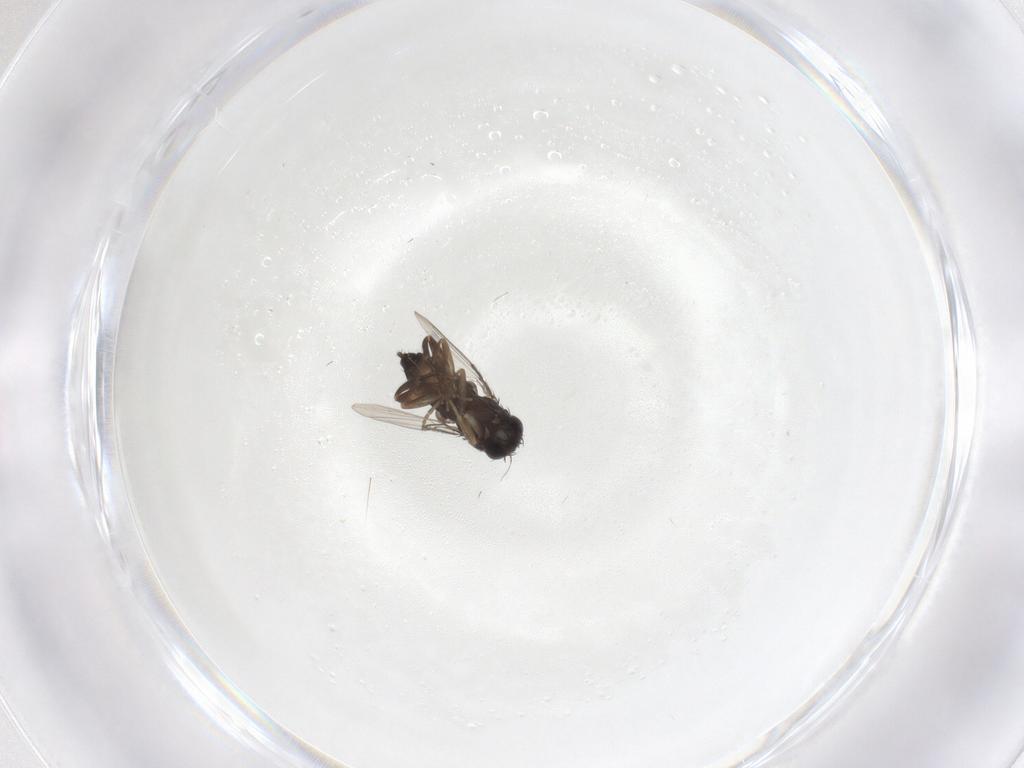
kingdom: Animalia
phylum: Arthropoda
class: Insecta
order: Diptera
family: Phoridae
